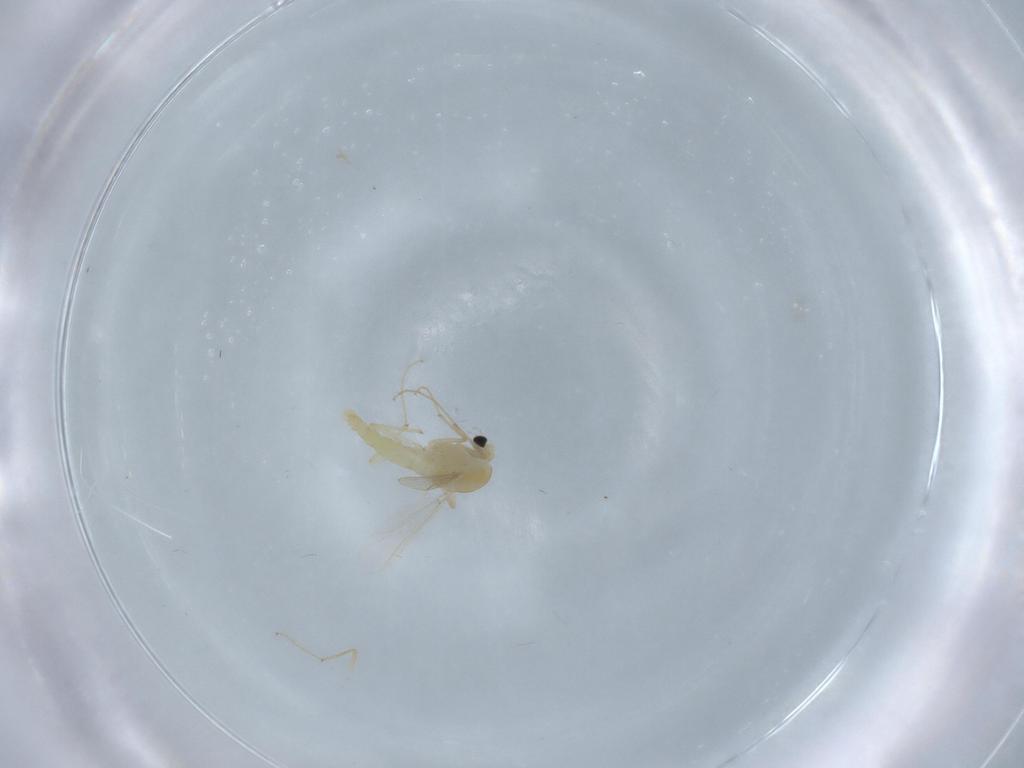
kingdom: Animalia
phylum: Arthropoda
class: Insecta
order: Diptera
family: Chironomidae
